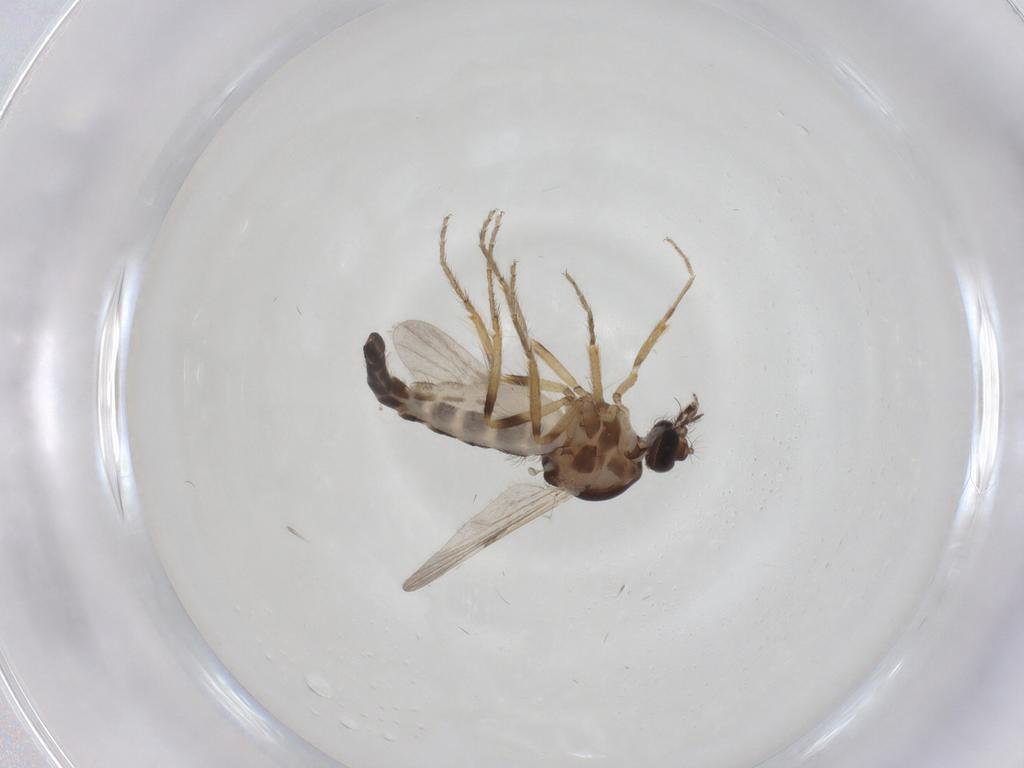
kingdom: Animalia
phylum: Arthropoda
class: Insecta
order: Diptera
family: Ceratopogonidae
